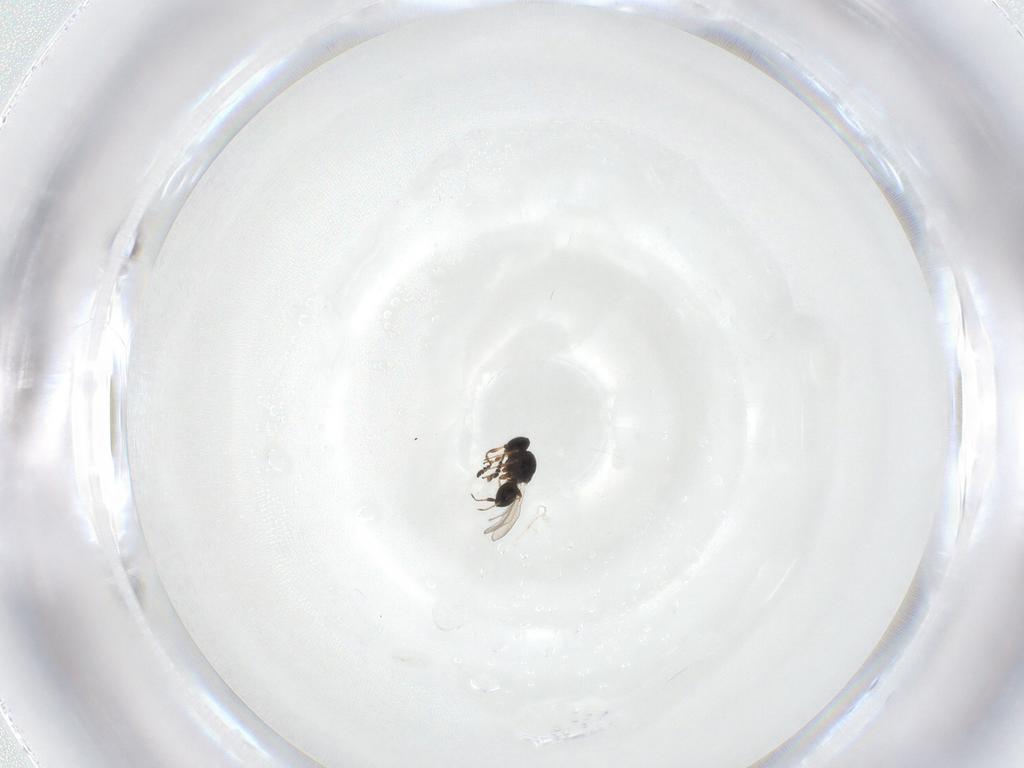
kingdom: Animalia
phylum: Arthropoda
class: Insecta
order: Hymenoptera
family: Platygastridae
